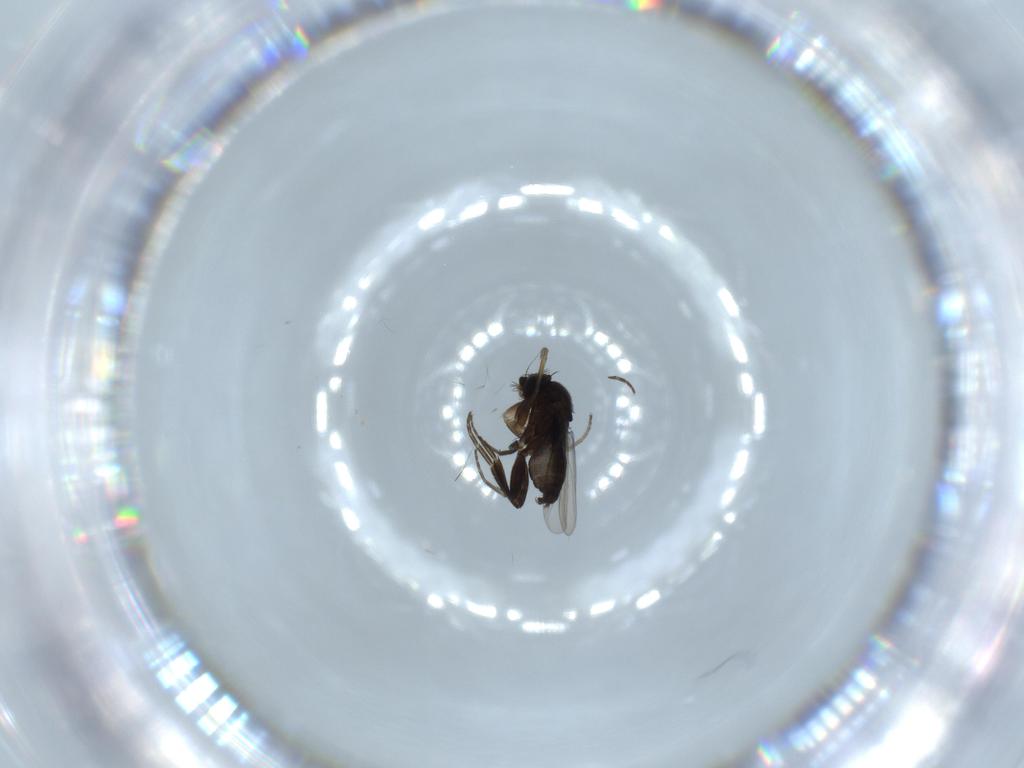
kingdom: Animalia
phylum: Arthropoda
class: Insecta
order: Diptera
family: Phoridae
